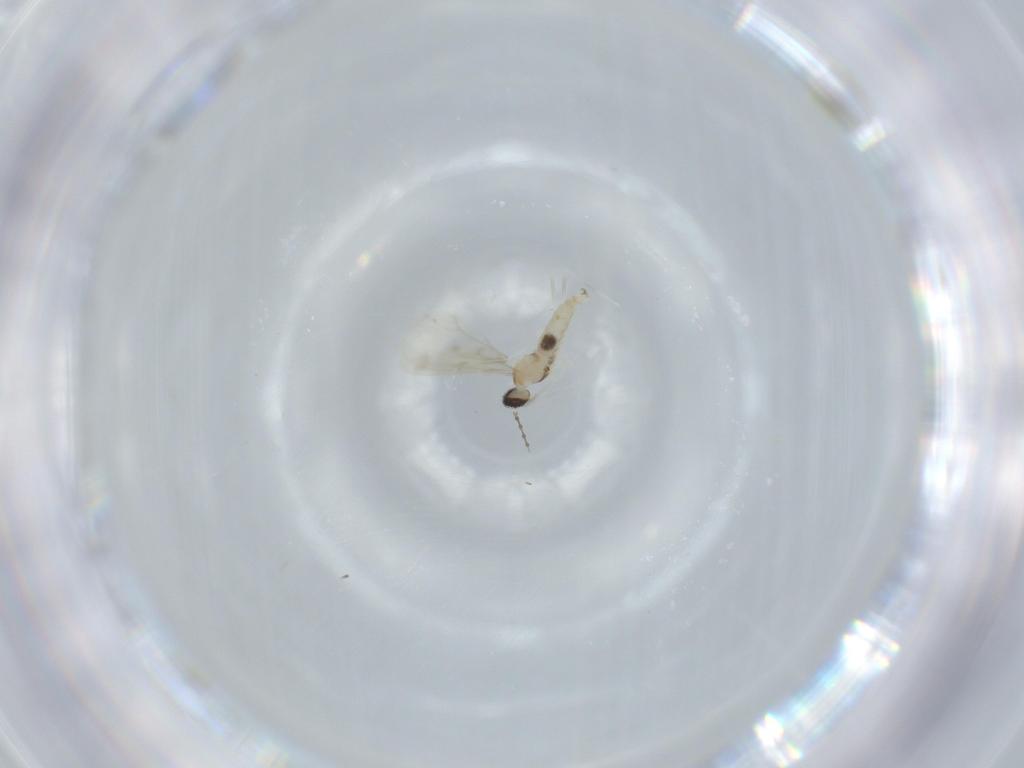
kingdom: Animalia
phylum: Arthropoda
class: Insecta
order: Diptera
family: Cecidomyiidae
